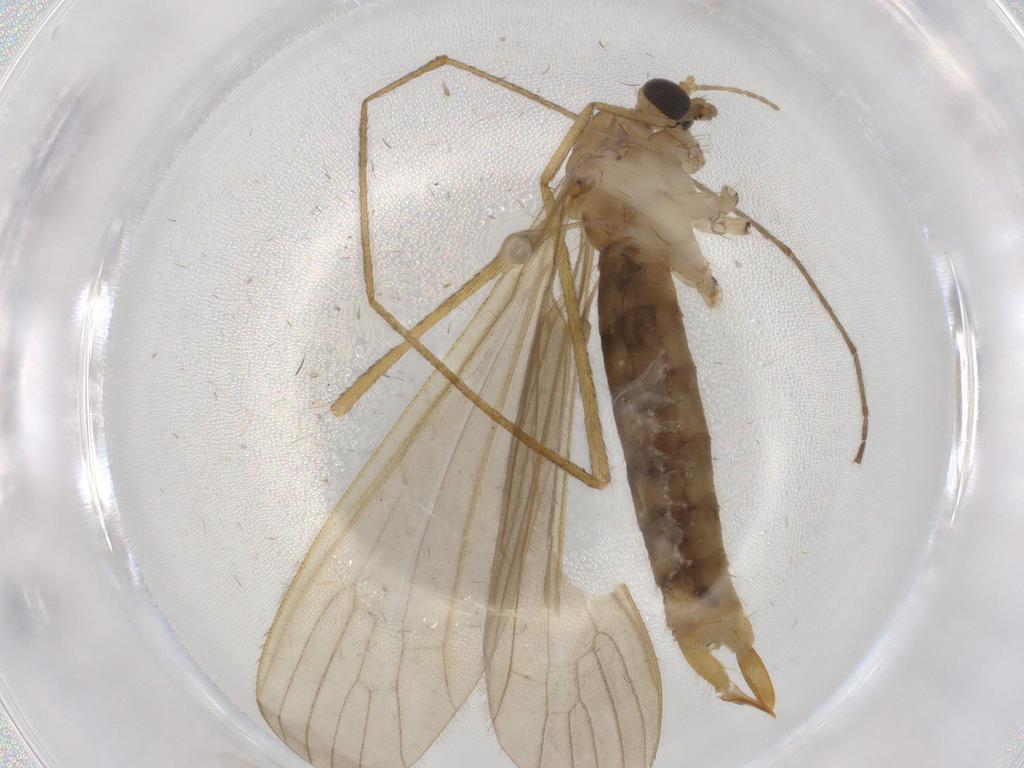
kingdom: Animalia
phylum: Arthropoda
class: Insecta
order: Diptera
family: Limoniidae
